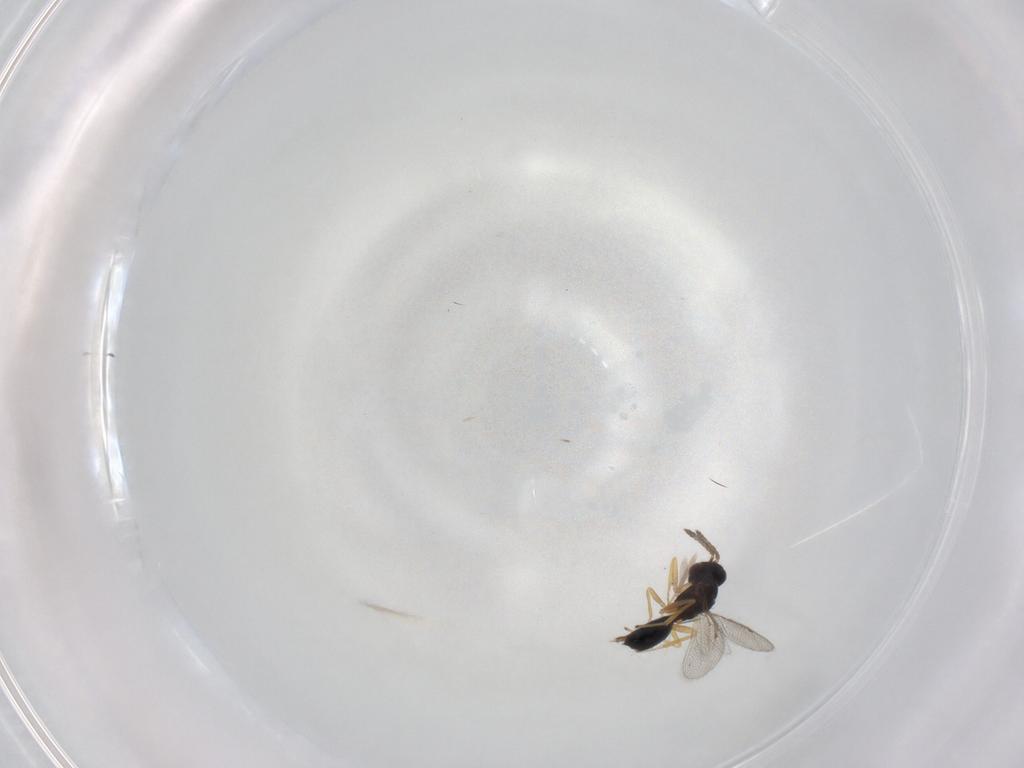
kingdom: Animalia
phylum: Arthropoda
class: Insecta
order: Hymenoptera
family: Eulophidae
